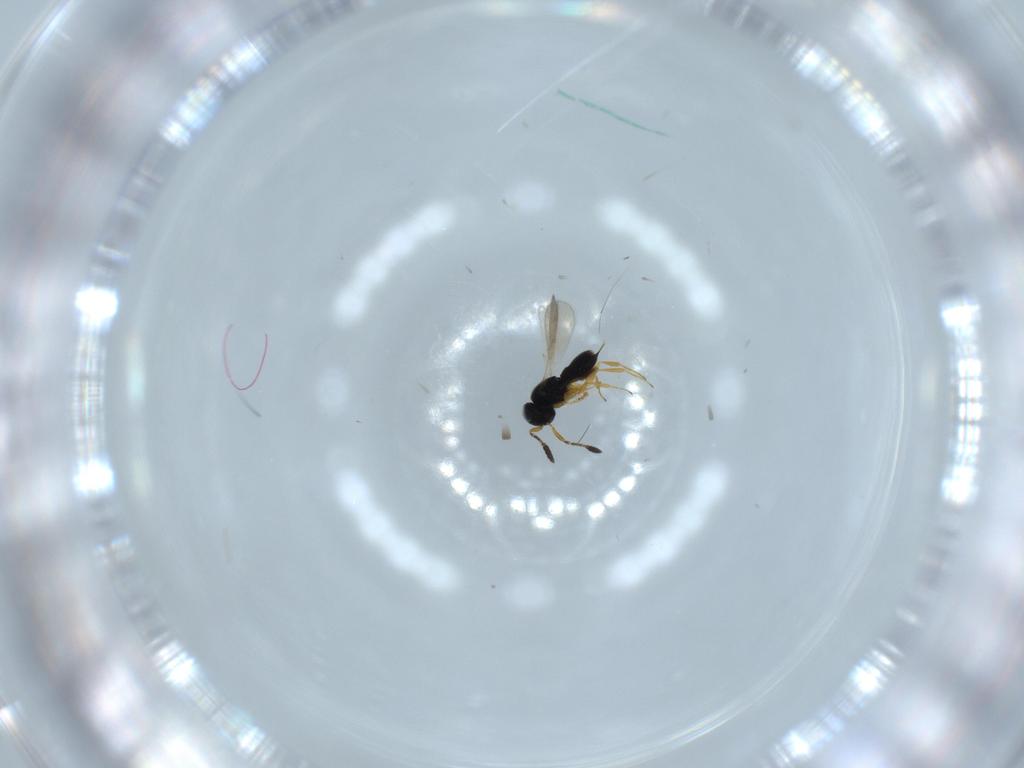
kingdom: Animalia
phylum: Arthropoda
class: Insecta
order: Hymenoptera
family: Scelionidae
